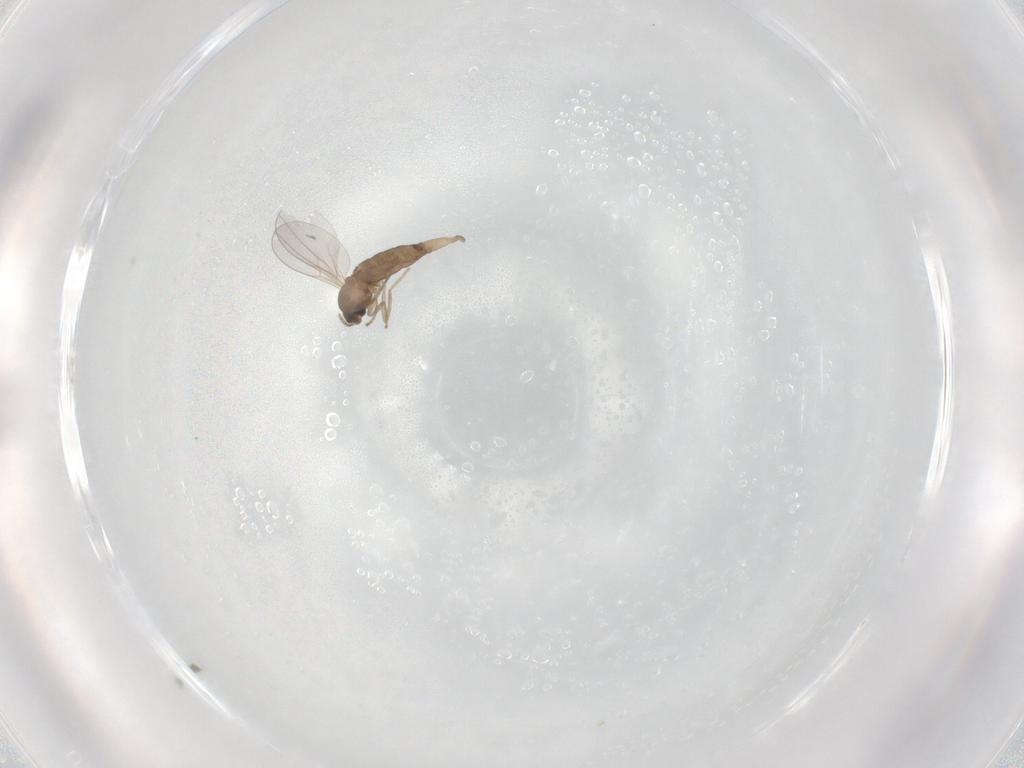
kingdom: Animalia
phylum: Arthropoda
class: Insecta
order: Diptera
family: Cecidomyiidae
